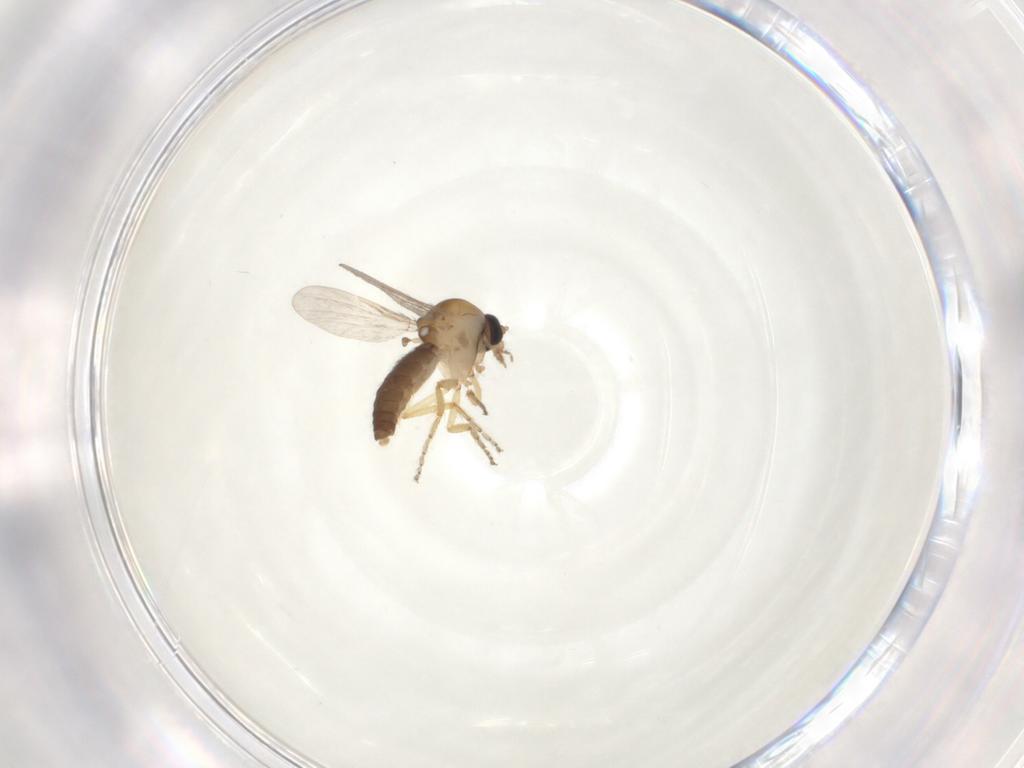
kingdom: Animalia
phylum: Arthropoda
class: Insecta
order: Diptera
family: Ceratopogonidae
